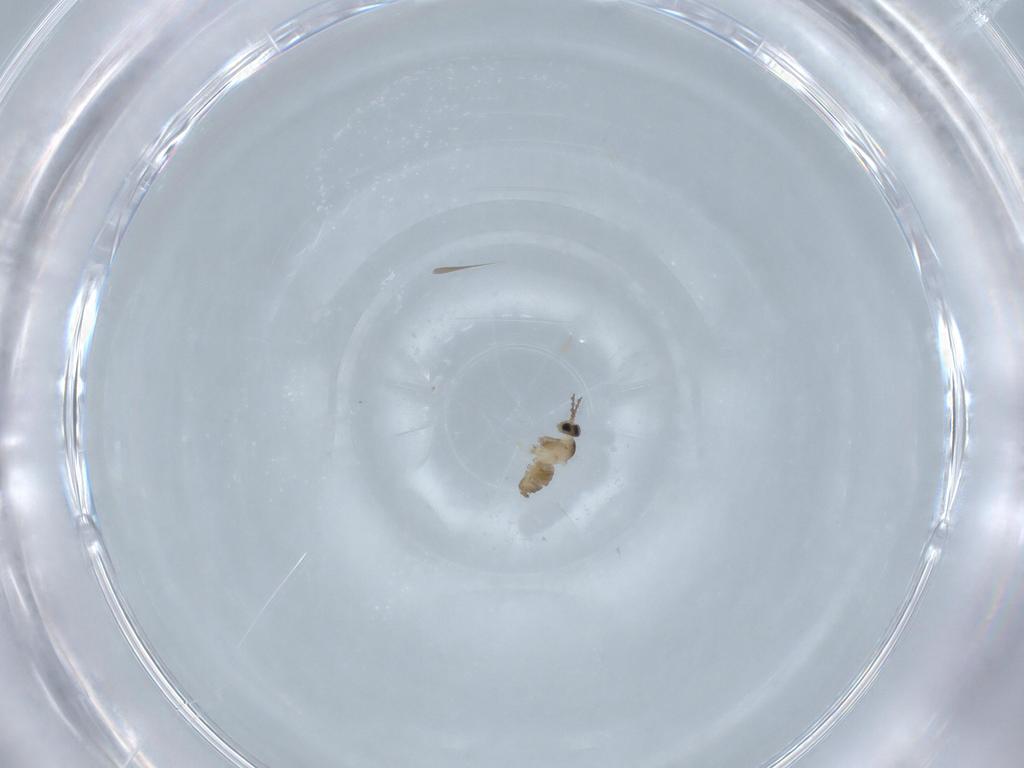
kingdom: Animalia
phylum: Arthropoda
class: Insecta
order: Diptera
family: Cecidomyiidae
